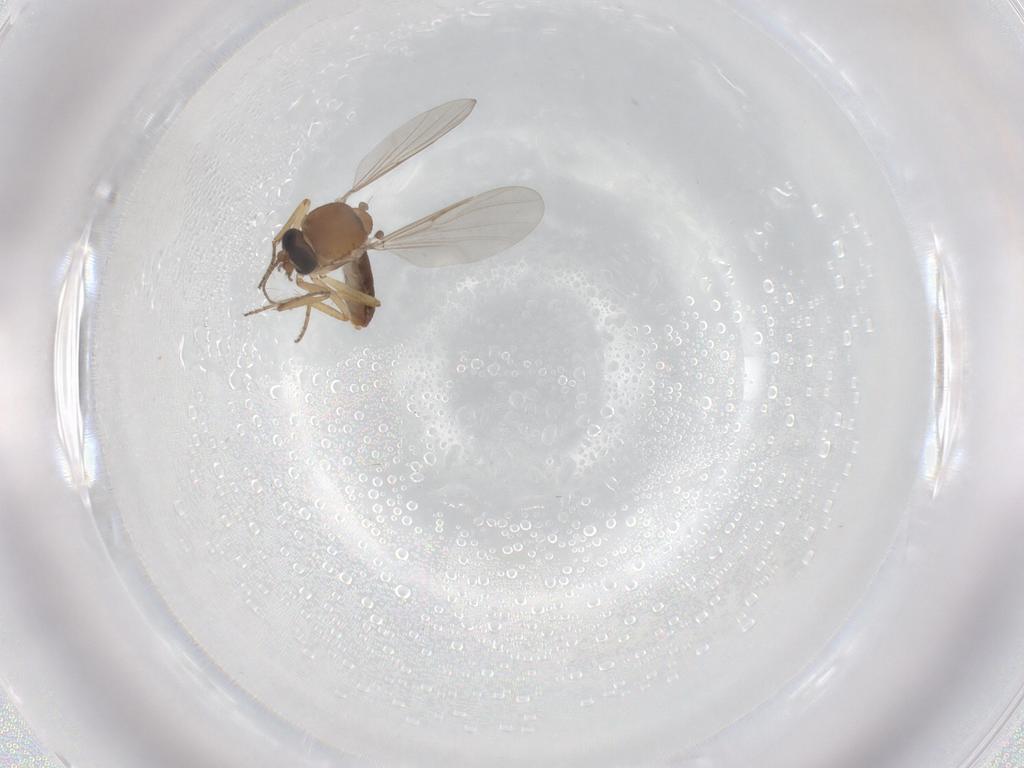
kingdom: Animalia
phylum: Arthropoda
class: Insecta
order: Diptera
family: Ceratopogonidae
